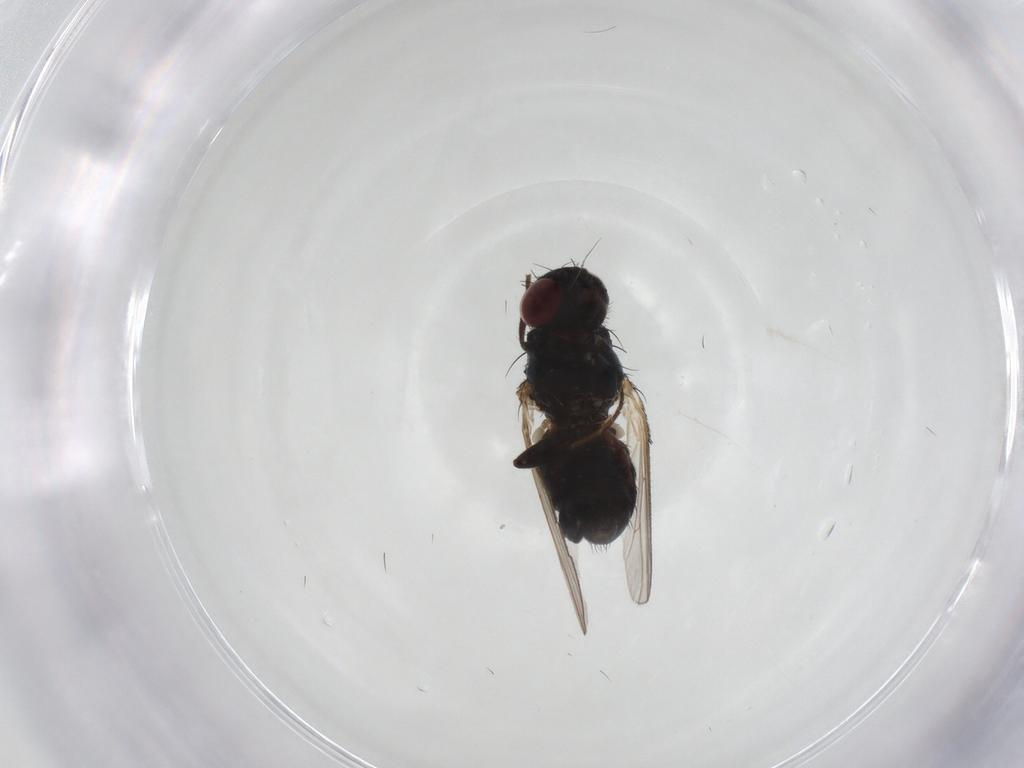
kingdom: Animalia
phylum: Arthropoda
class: Insecta
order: Diptera
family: Carnidae
